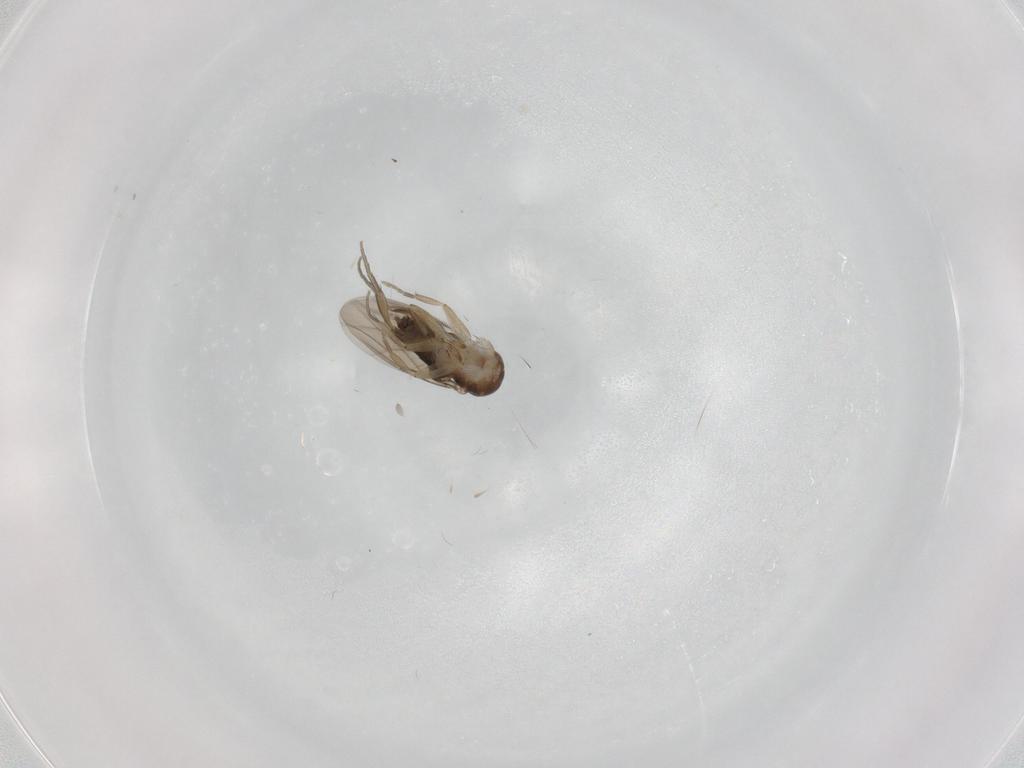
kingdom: Animalia
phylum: Arthropoda
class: Insecta
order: Diptera
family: Phoridae
